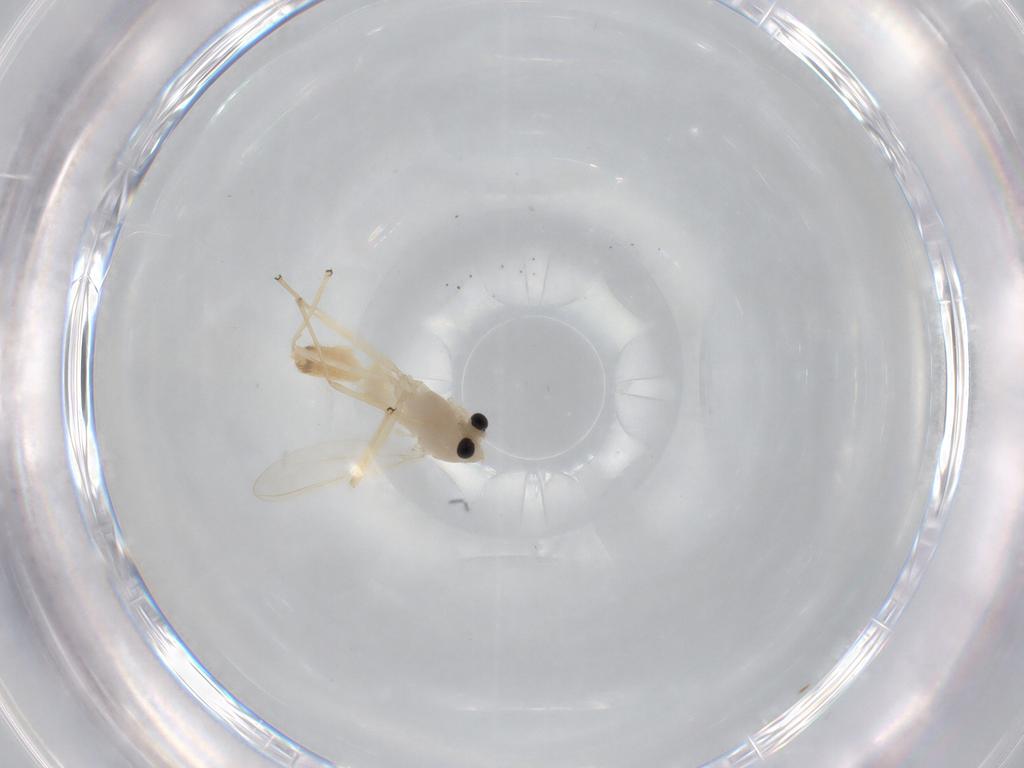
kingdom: Animalia
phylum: Arthropoda
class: Insecta
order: Diptera
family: Chironomidae
